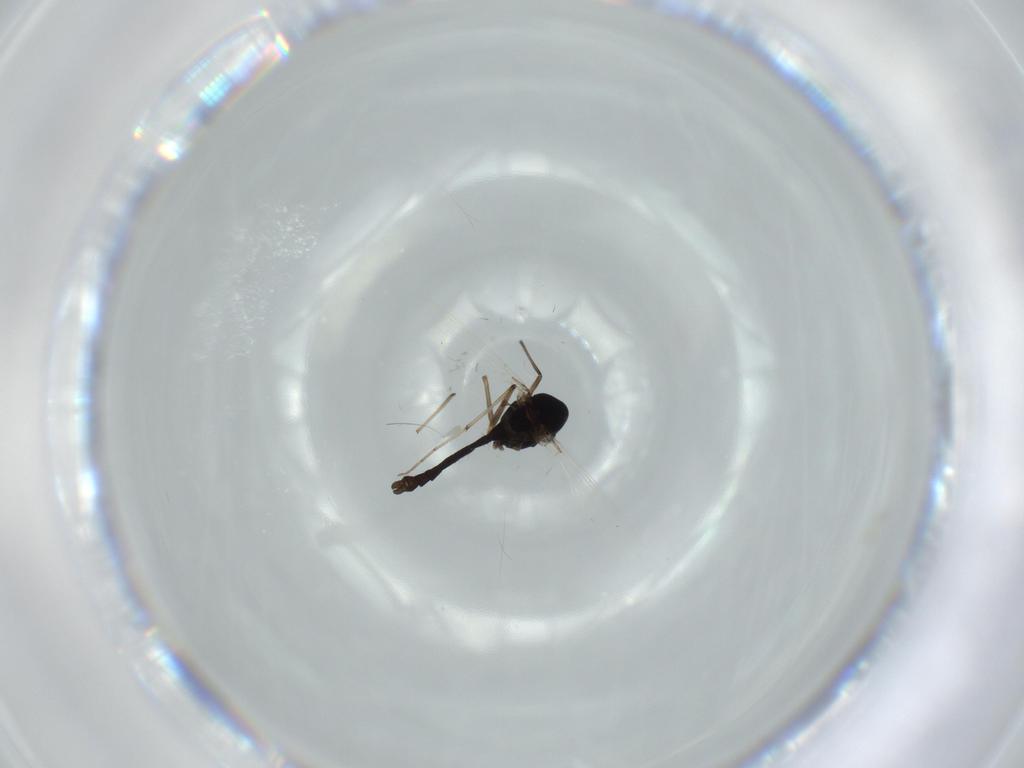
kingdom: Animalia
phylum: Arthropoda
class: Insecta
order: Diptera
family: Chironomidae
